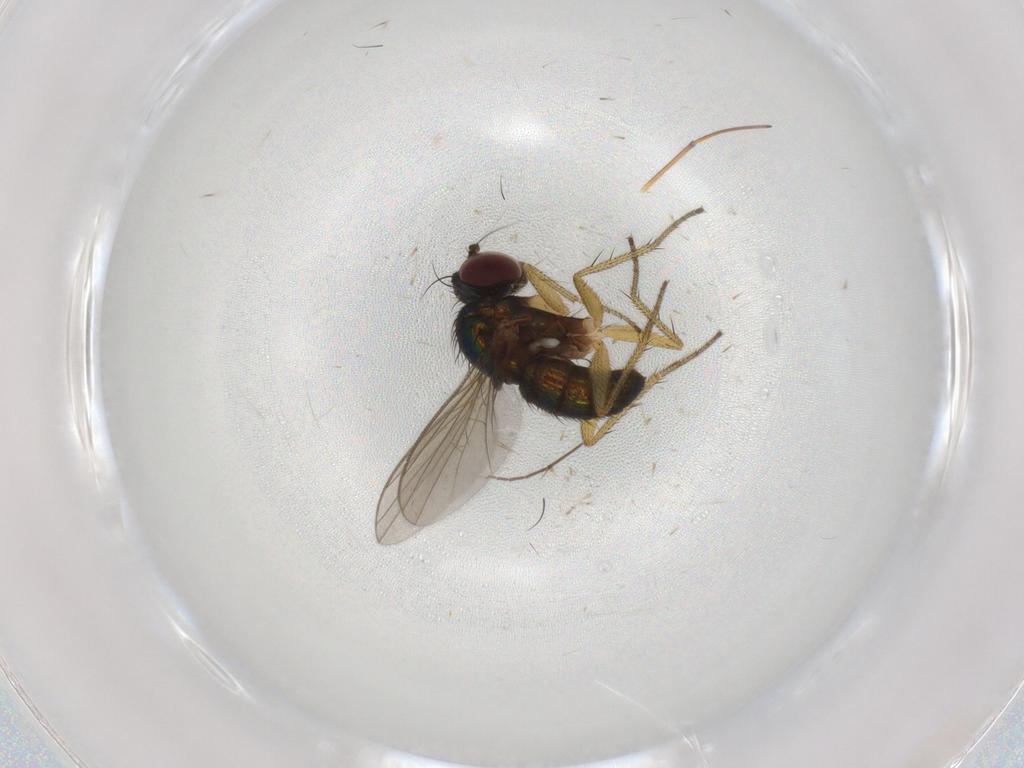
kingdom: Animalia
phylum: Arthropoda
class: Insecta
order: Diptera
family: Dolichopodidae
